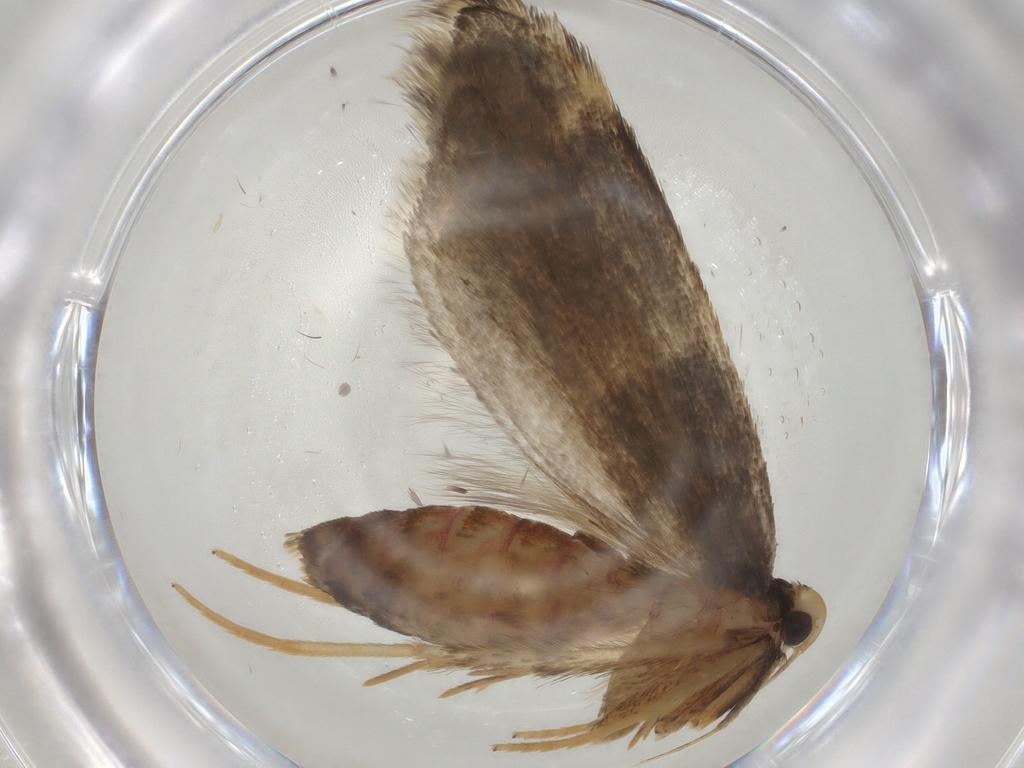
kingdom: Animalia
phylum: Arthropoda
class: Insecta
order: Lepidoptera
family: Lecithoceridae
